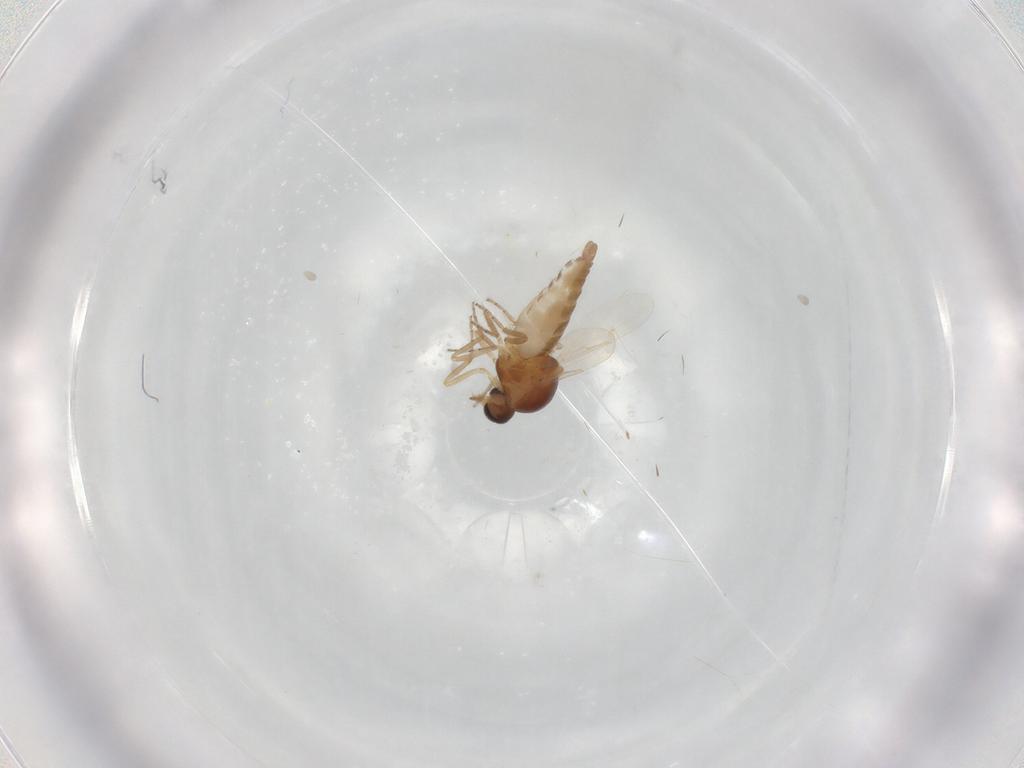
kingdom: Animalia
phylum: Arthropoda
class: Insecta
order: Diptera
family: Ceratopogonidae
